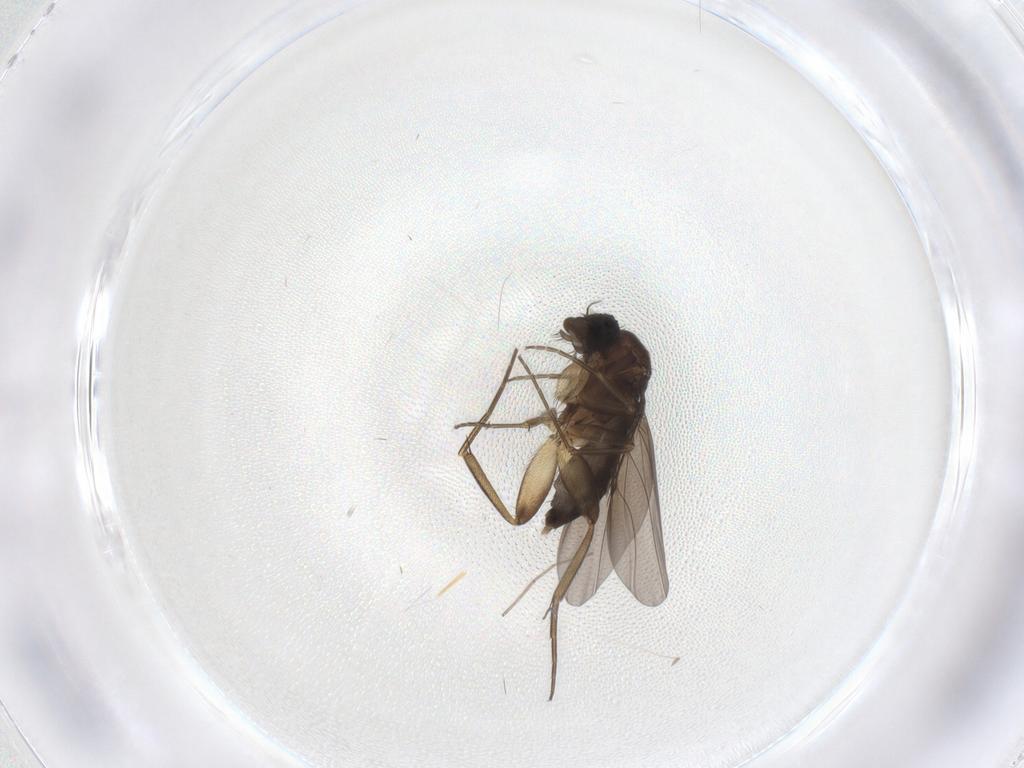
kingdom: Animalia
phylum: Arthropoda
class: Insecta
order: Diptera
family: Phoridae
